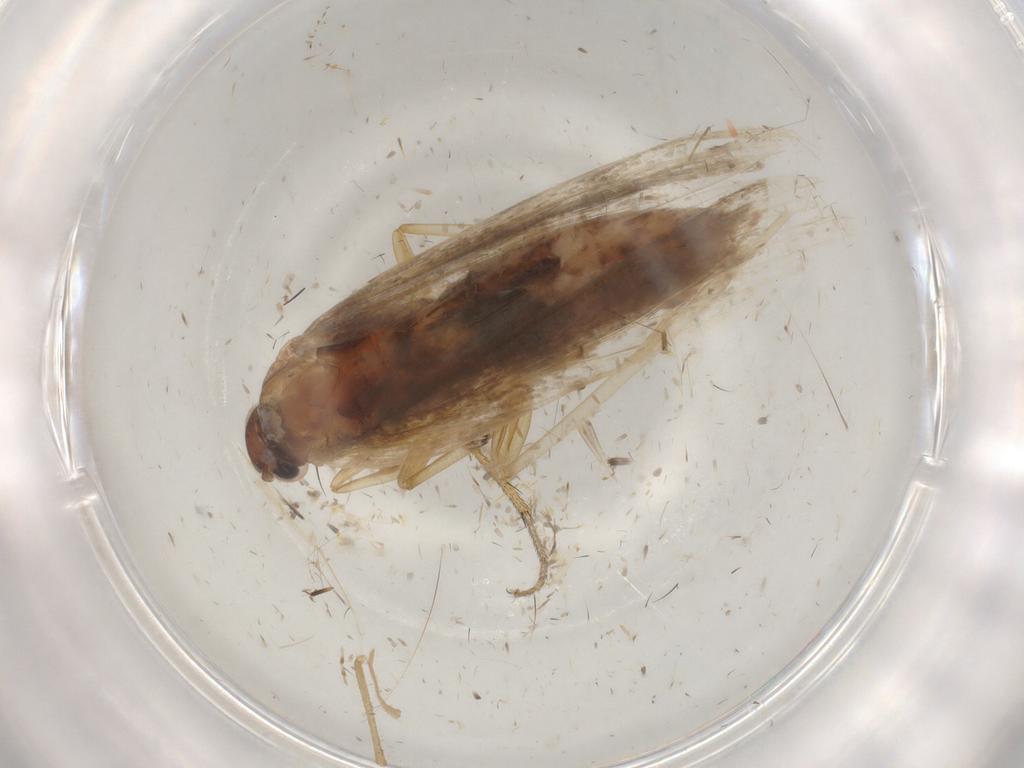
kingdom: Animalia
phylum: Arthropoda
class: Insecta
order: Lepidoptera
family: Gelechiidae
